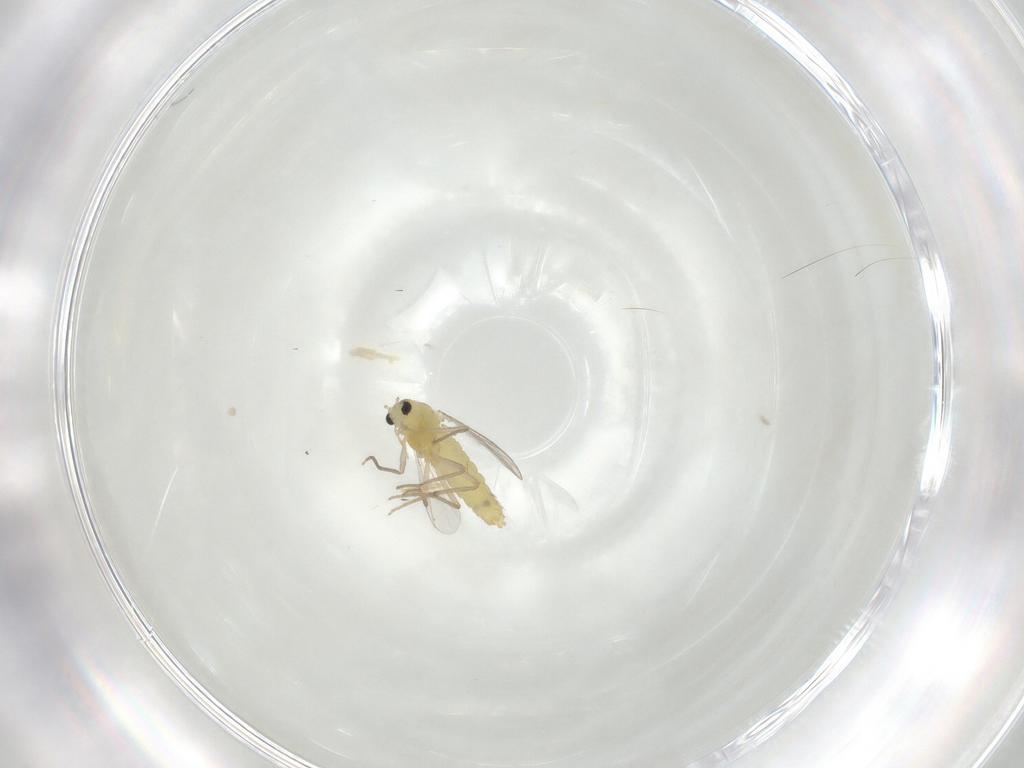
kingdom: Animalia
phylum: Arthropoda
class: Insecta
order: Diptera
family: Chironomidae
